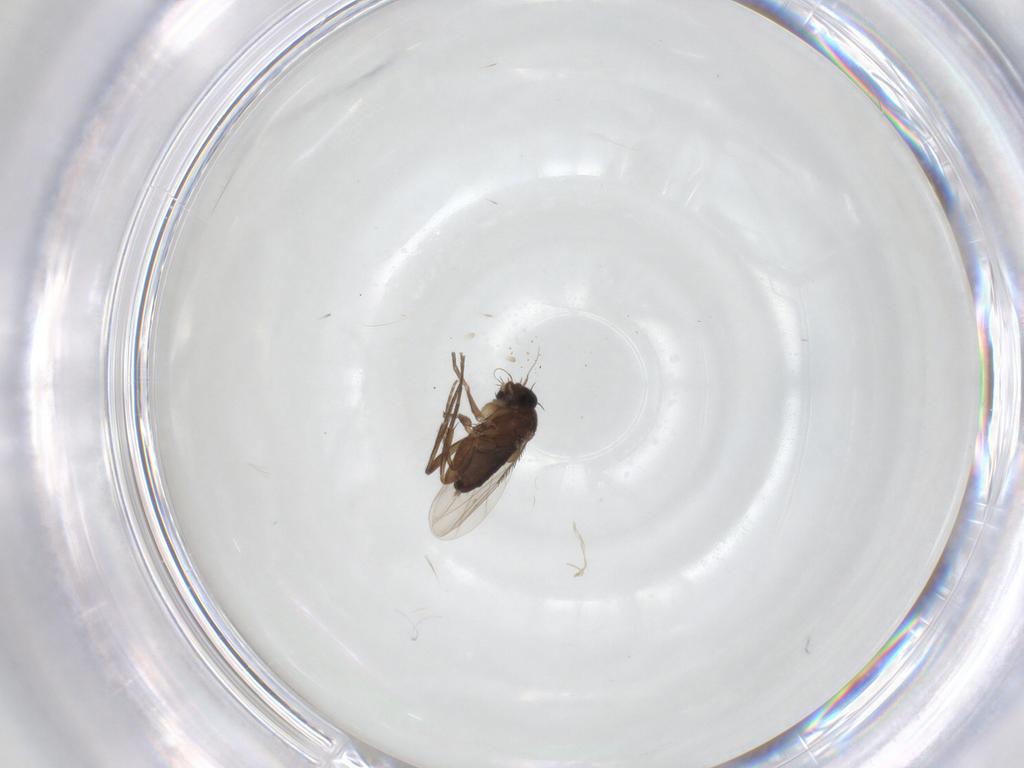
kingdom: Animalia
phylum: Arthropoda
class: Insecta
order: Diptera
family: Phoridae
